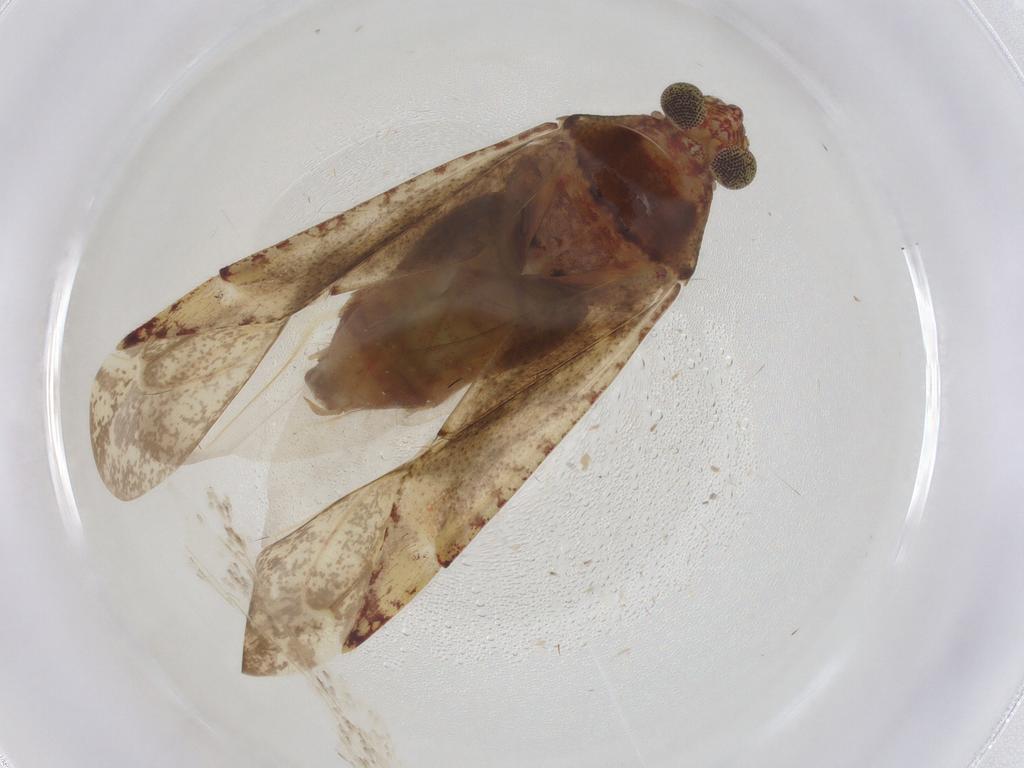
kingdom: Animalia
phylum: Arthropoda
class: Insecta
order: Hemiptera
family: Miridae
